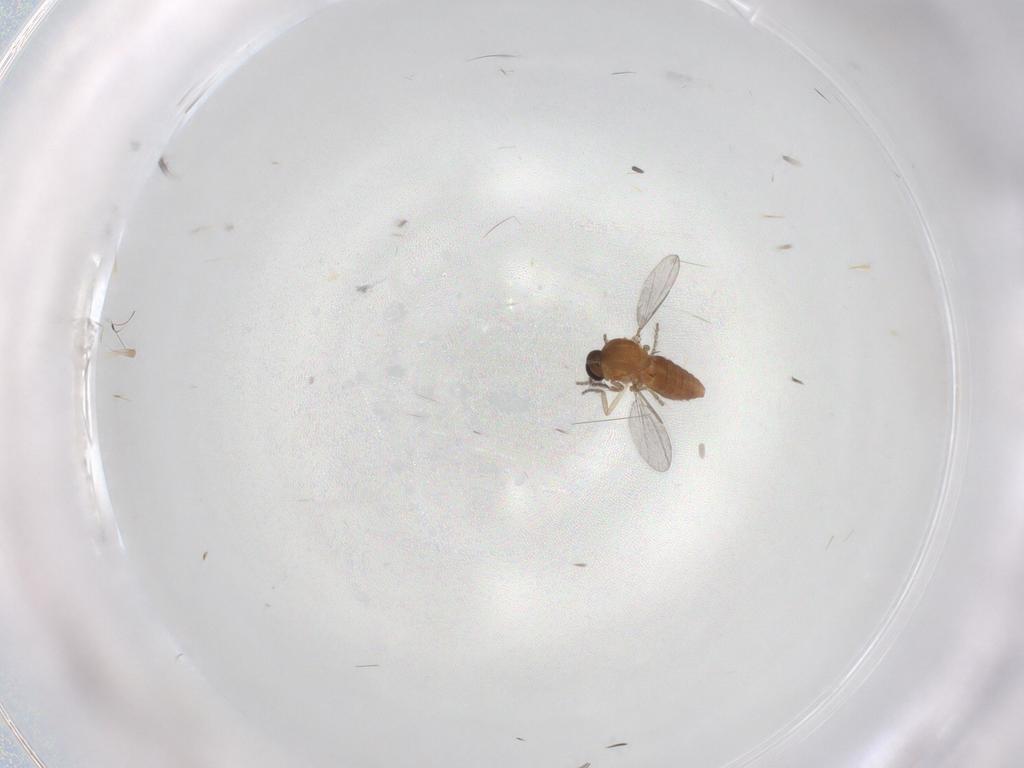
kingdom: Animalia
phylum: Arthropoda
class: Insecta
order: Diptera
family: Ceratopogonidae
